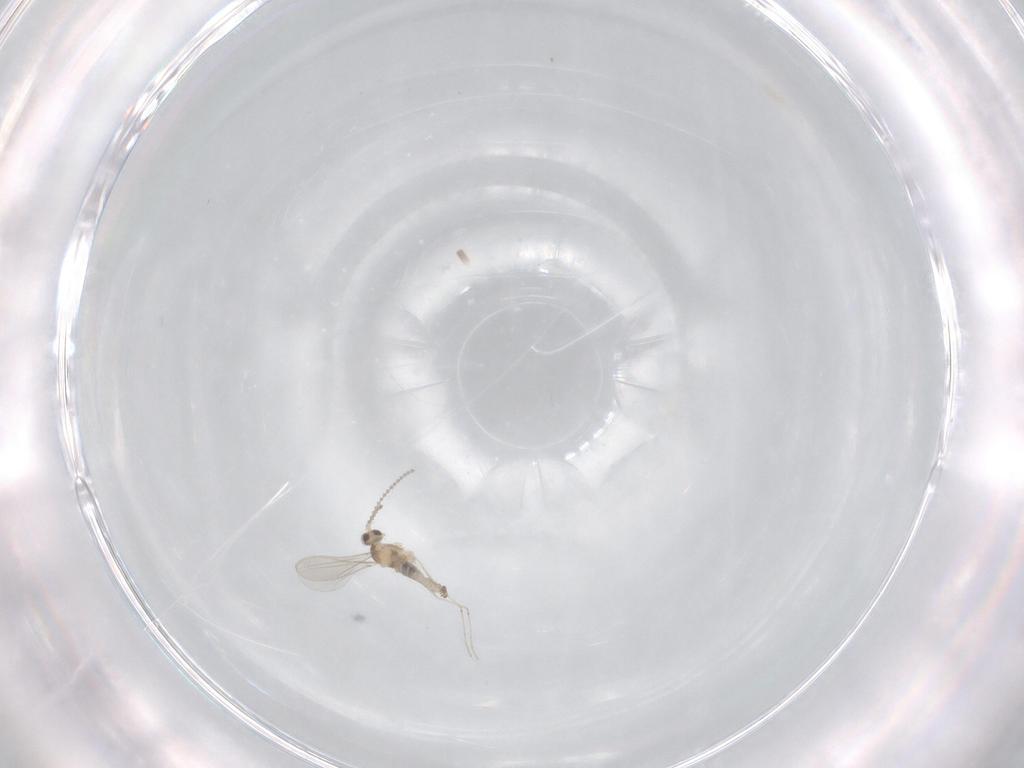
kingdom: Animalia
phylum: Arthropoda
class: Insecta
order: Diptera
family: Cecidomyiidae
